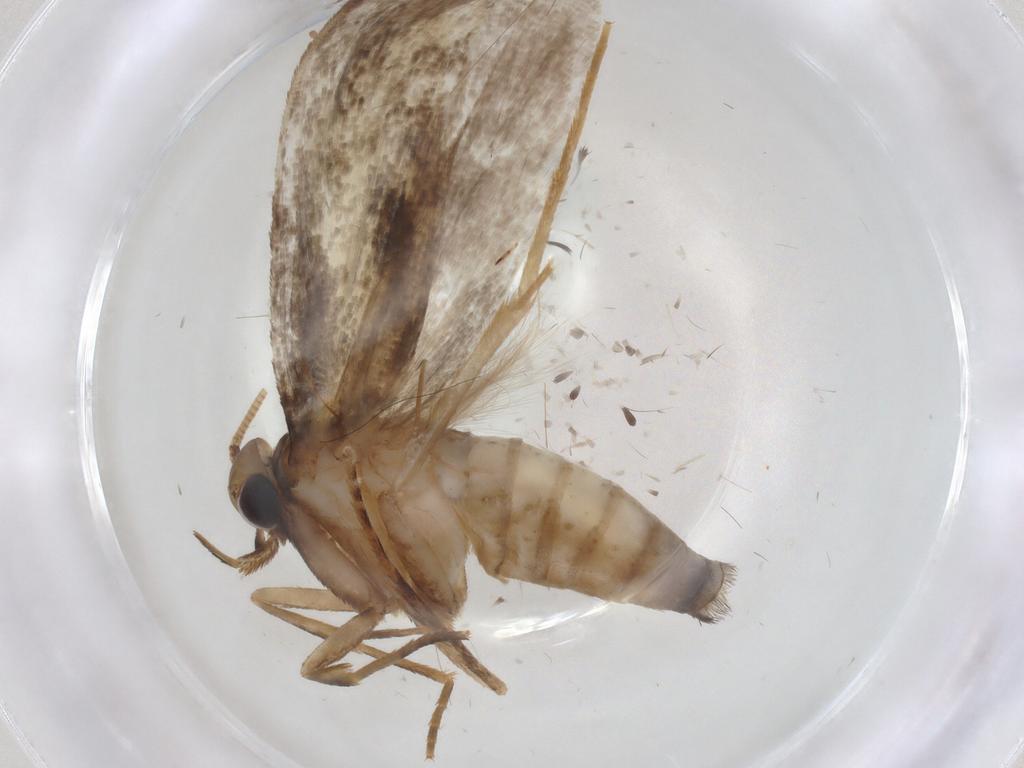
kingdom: Animalia
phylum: Arthropoda
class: Insecta
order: Lepidoptera
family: Tineidae
